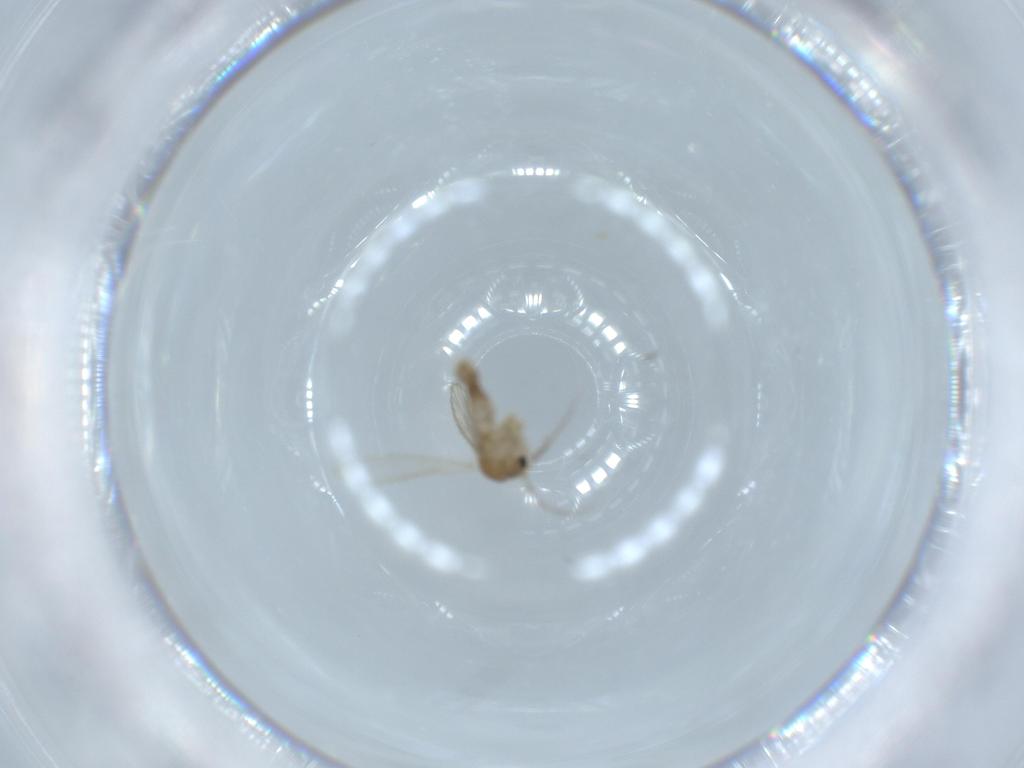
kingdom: Animalia
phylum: Arthropoda
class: Insecta
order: Diptera
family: Psychodidae
